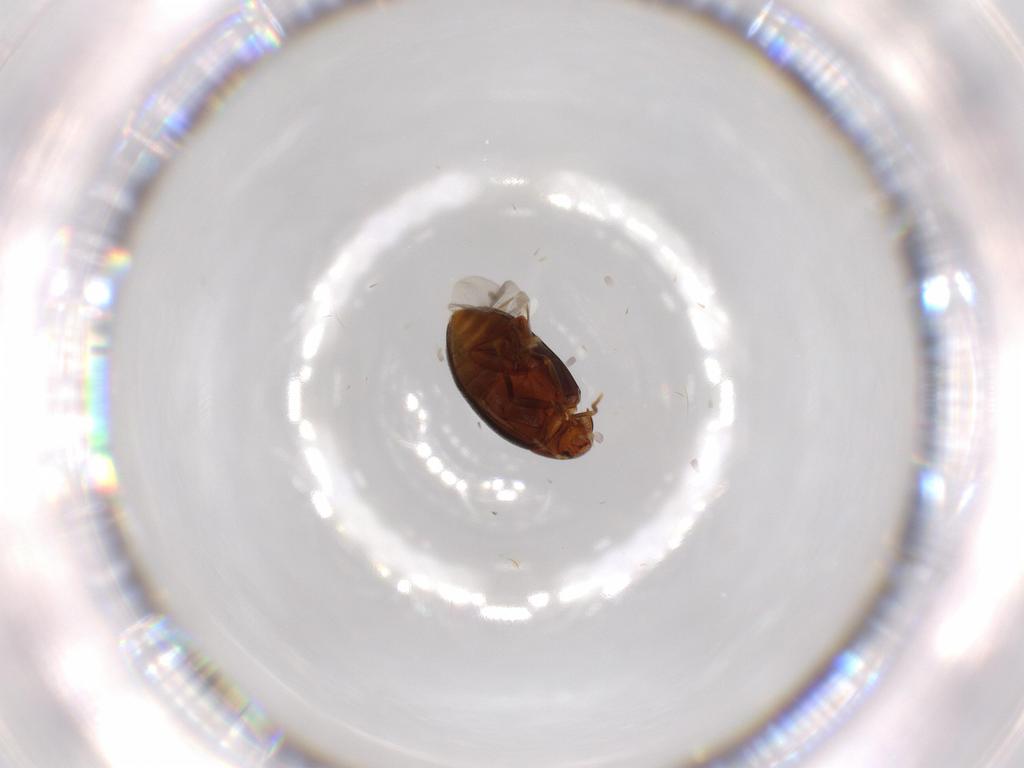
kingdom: Animalia
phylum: Arthropoda
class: Insecta
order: Coleoptera
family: Melandryidae
